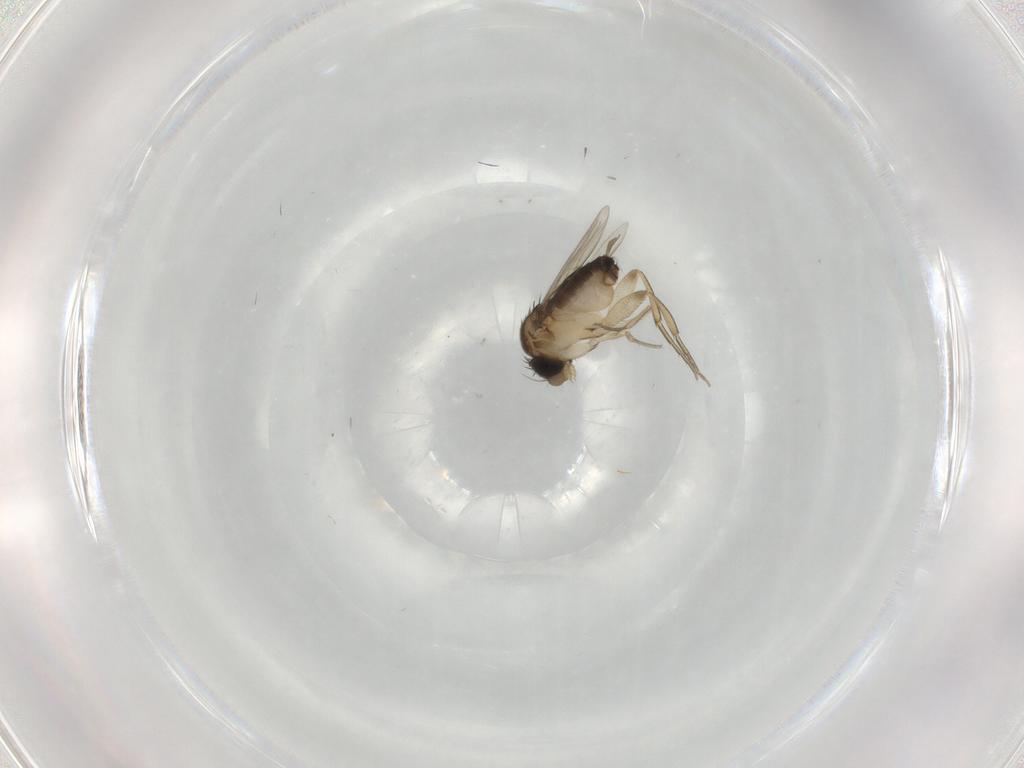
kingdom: Animalia
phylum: Arthropoda
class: Insecta
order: Diptera
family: Phoridae
